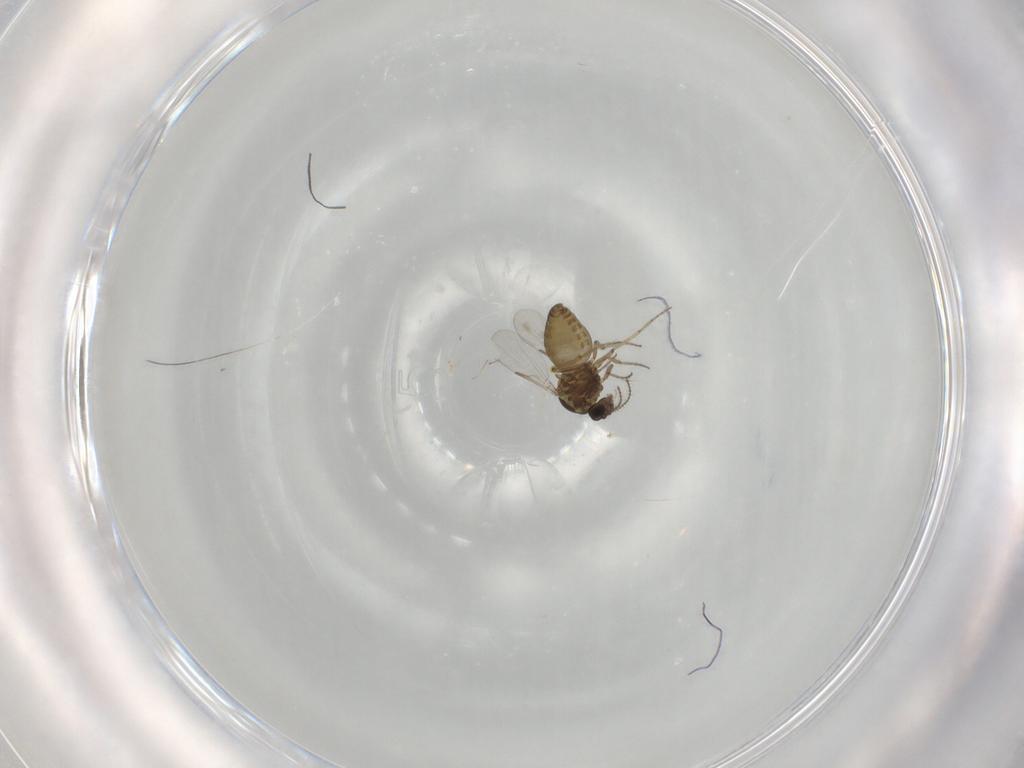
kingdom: Animalia
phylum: Arthropoda
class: Insecta
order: Diptera
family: Ceratopogonidae
